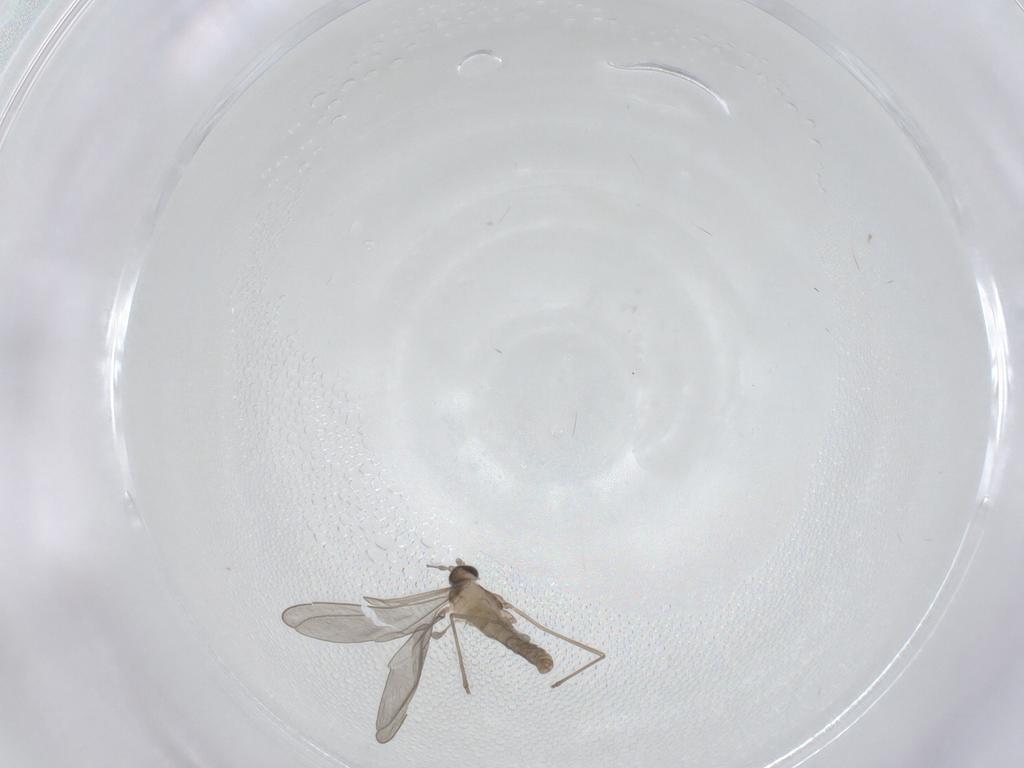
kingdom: Animalia
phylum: Arthropoda
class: Insecta
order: Diptera
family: Cecidomyiidae
